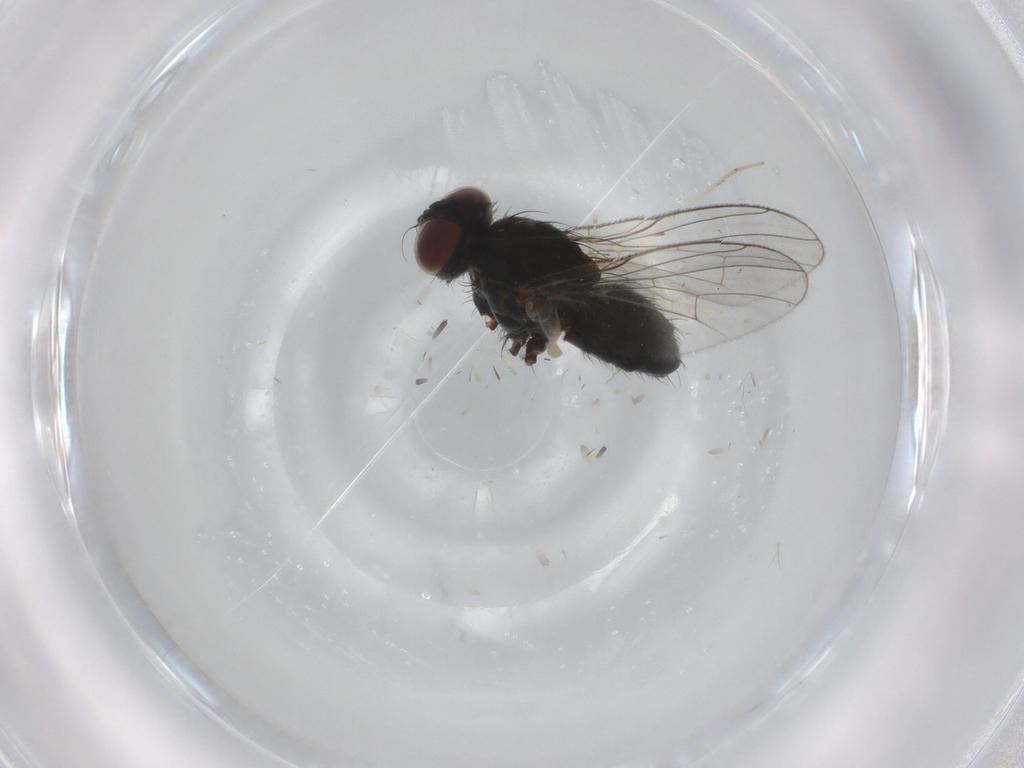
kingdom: Animalia
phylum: Arthropoda
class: Insecta
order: Diptera
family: Muscidae
